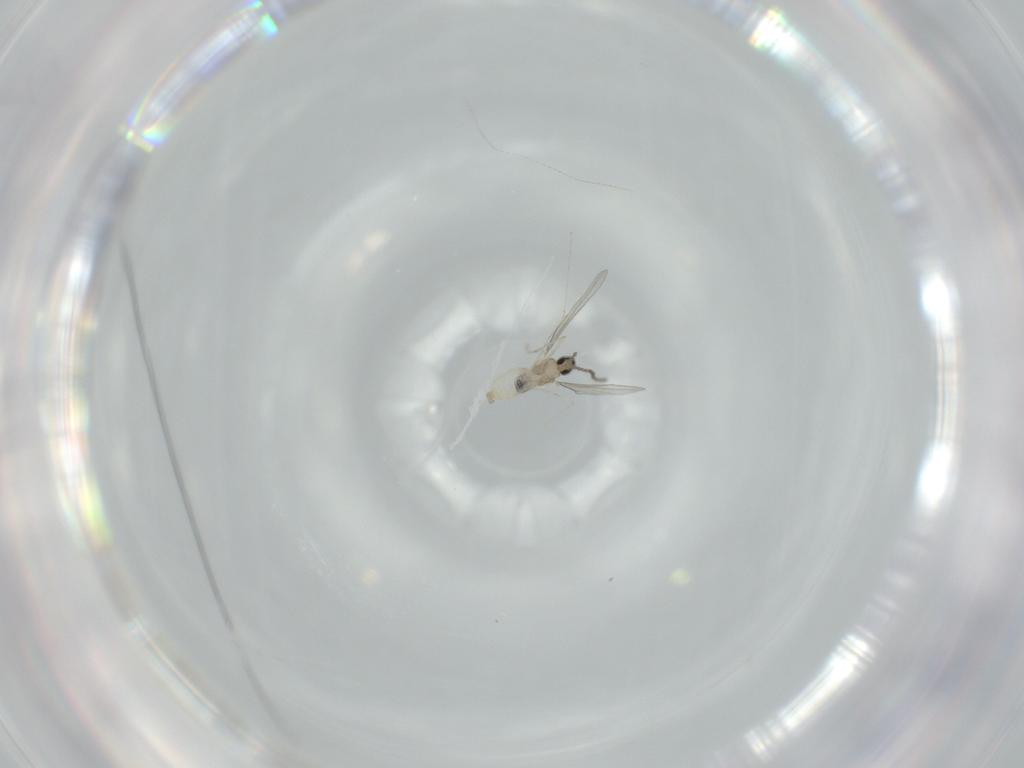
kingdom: Animalia
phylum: Arthropoda
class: Insecta
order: Diptera
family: Cecidomyiidae
